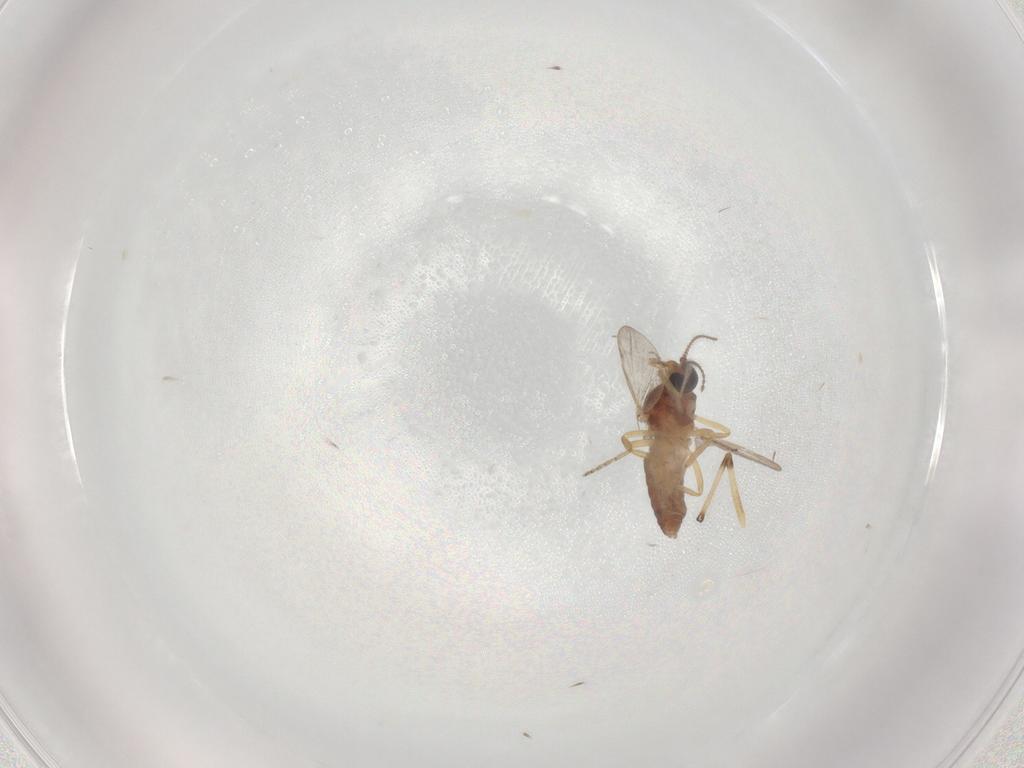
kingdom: Animalia
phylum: Arthropoda
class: Insecta
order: Diptera
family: Chironomidae
